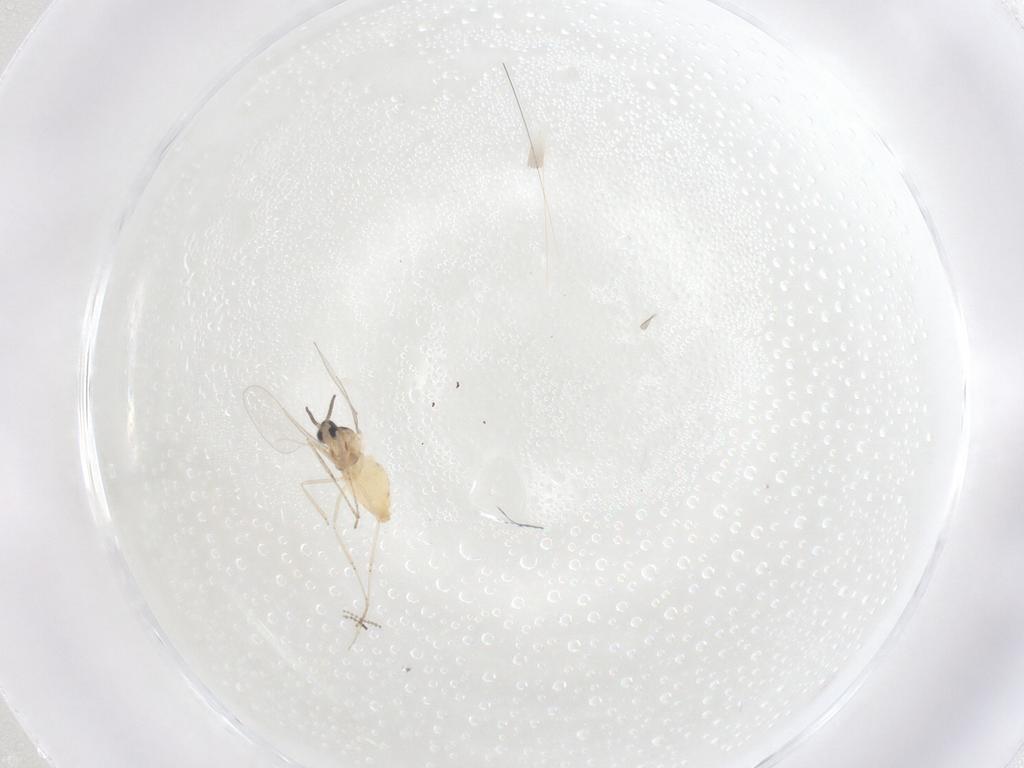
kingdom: Animalia
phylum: Arthropoda
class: Insecta
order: Diptera
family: Cecidomyiidae
